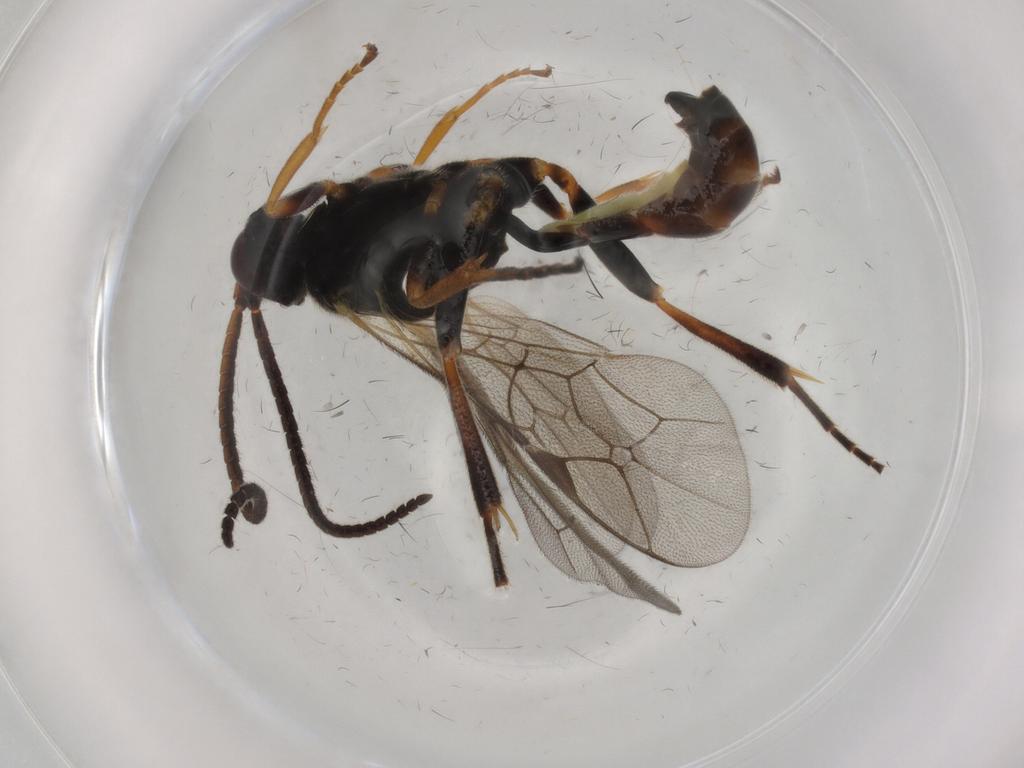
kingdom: Animalia
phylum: Arthropoda
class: Insecta
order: Hymenoptera
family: Ichneumonidae
